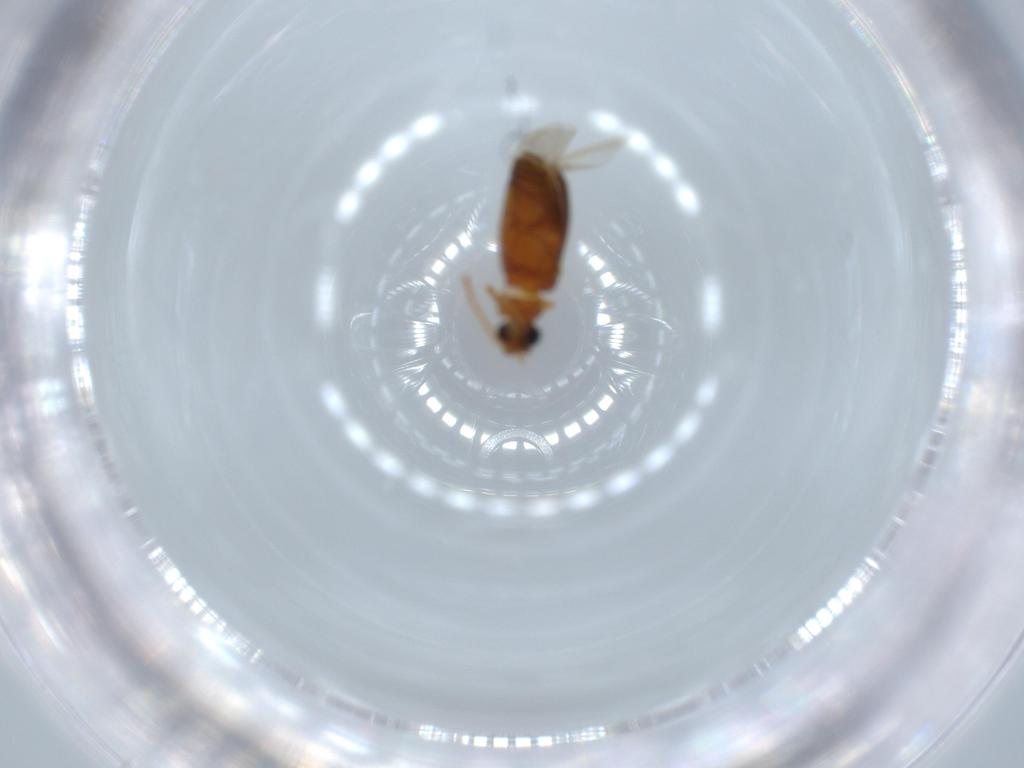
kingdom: Animalia
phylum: Arthropoda
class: Insecta
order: Coleoptera
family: Aderidae
